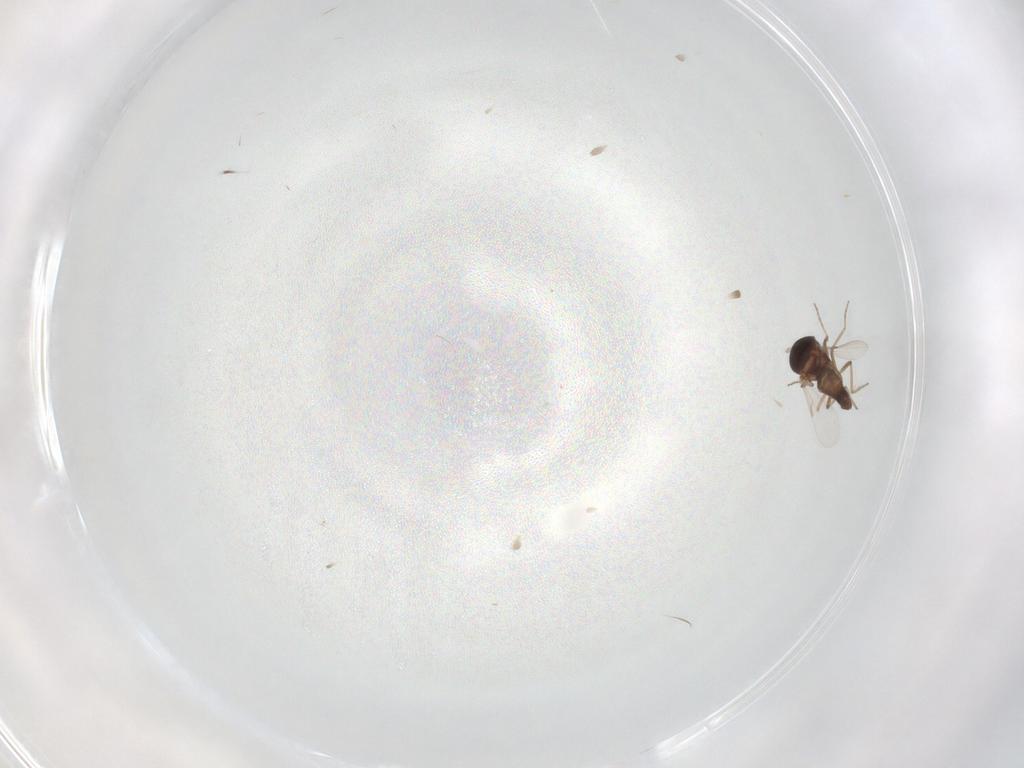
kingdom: Animalia
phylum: Arthropoda
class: Insecta
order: Diptera
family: Ceratopogonidae
